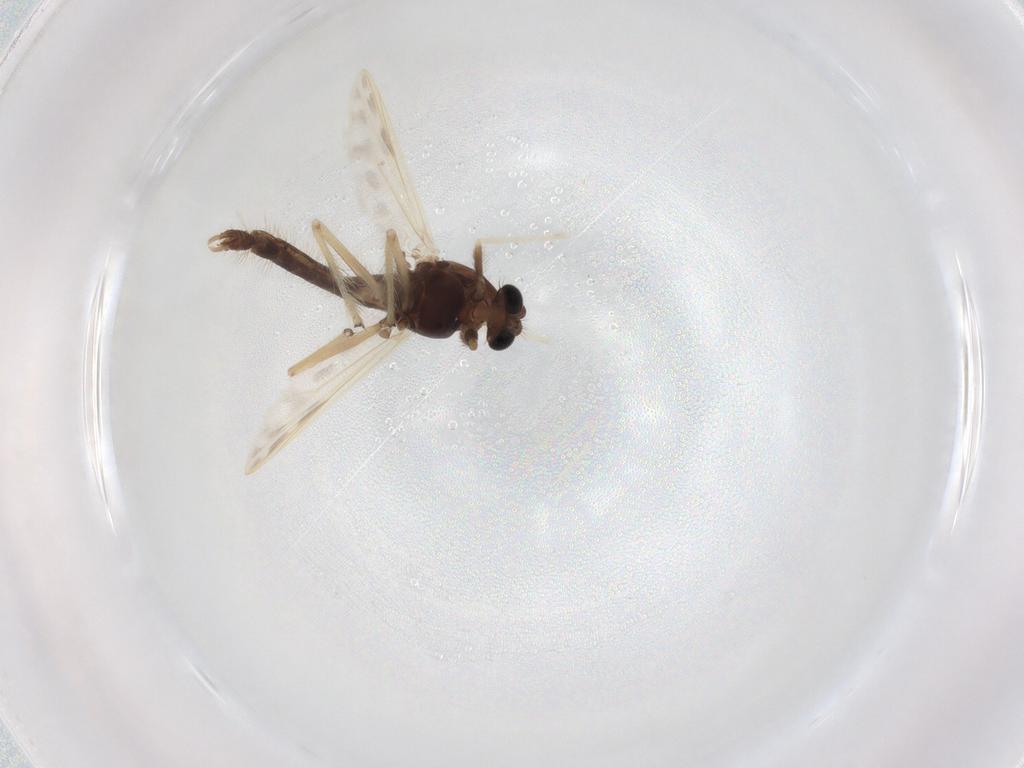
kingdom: Animalia
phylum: Arthropoda
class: Insecta
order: Diptera
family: Chironomidae
